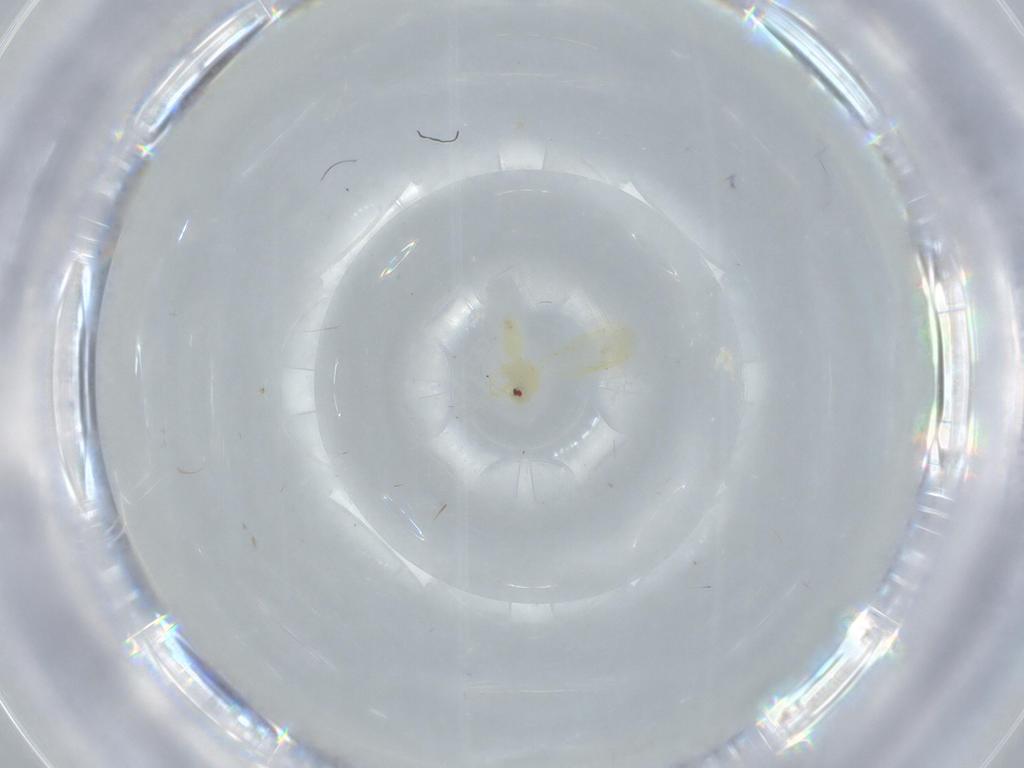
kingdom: Animalia
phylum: Arthropoda
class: Insecta
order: Hemiptera
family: Aleyrodidae
